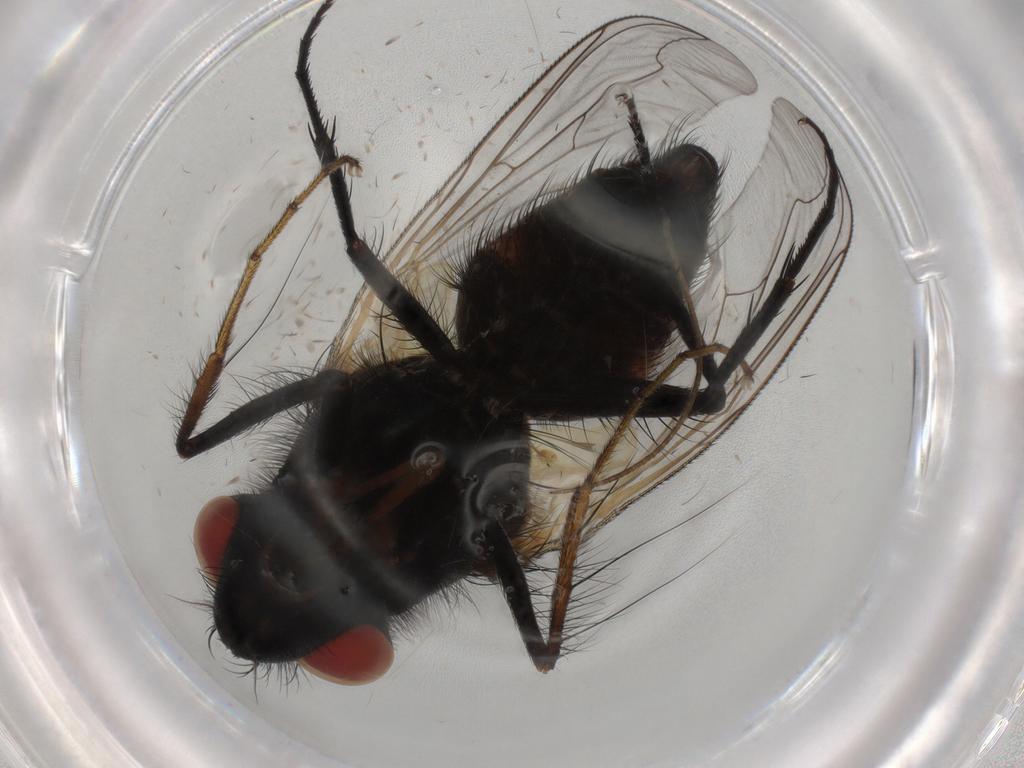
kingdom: Animalia
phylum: Arthropoda
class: Insecta
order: Diptera
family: Sarcophagidae
